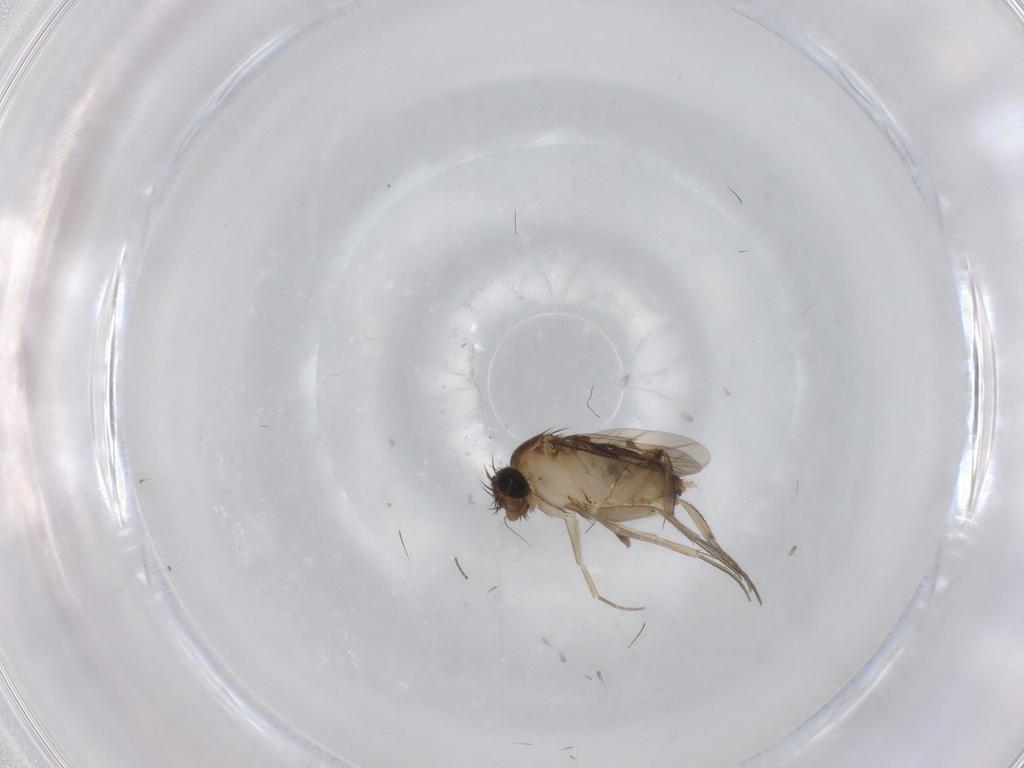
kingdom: Animalia
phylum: Arthropoda
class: Insecta
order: Diptera
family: Phoridae
